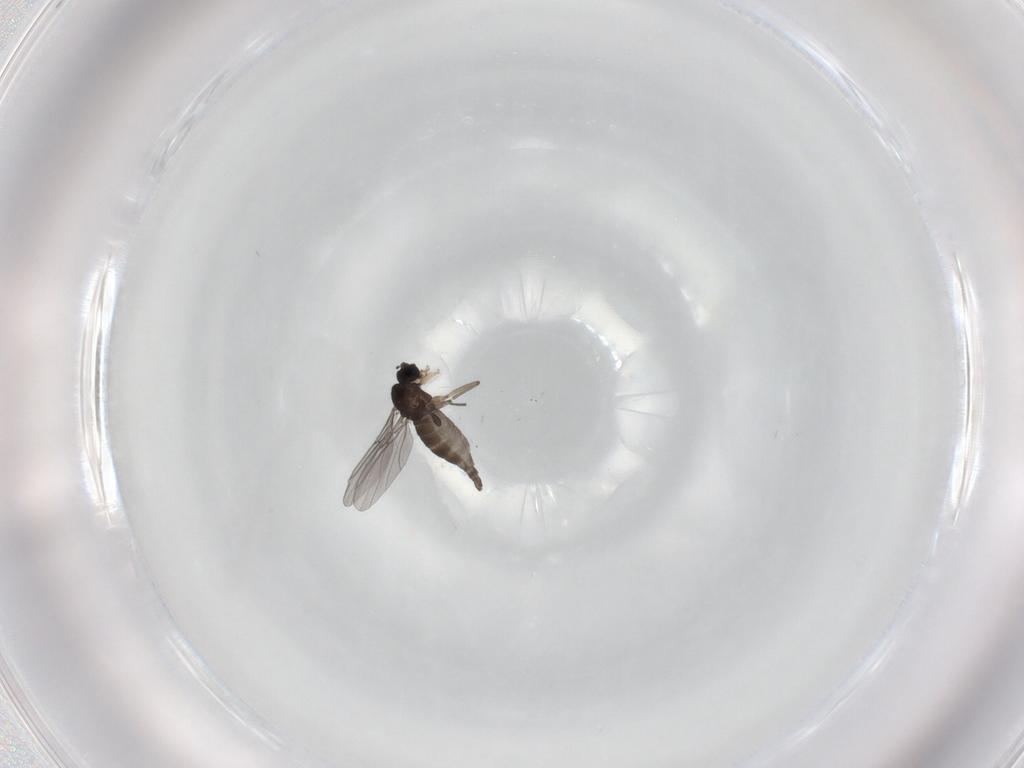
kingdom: Animalia
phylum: Arthropoda
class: Insecta
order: Diptera
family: Sciaridae
